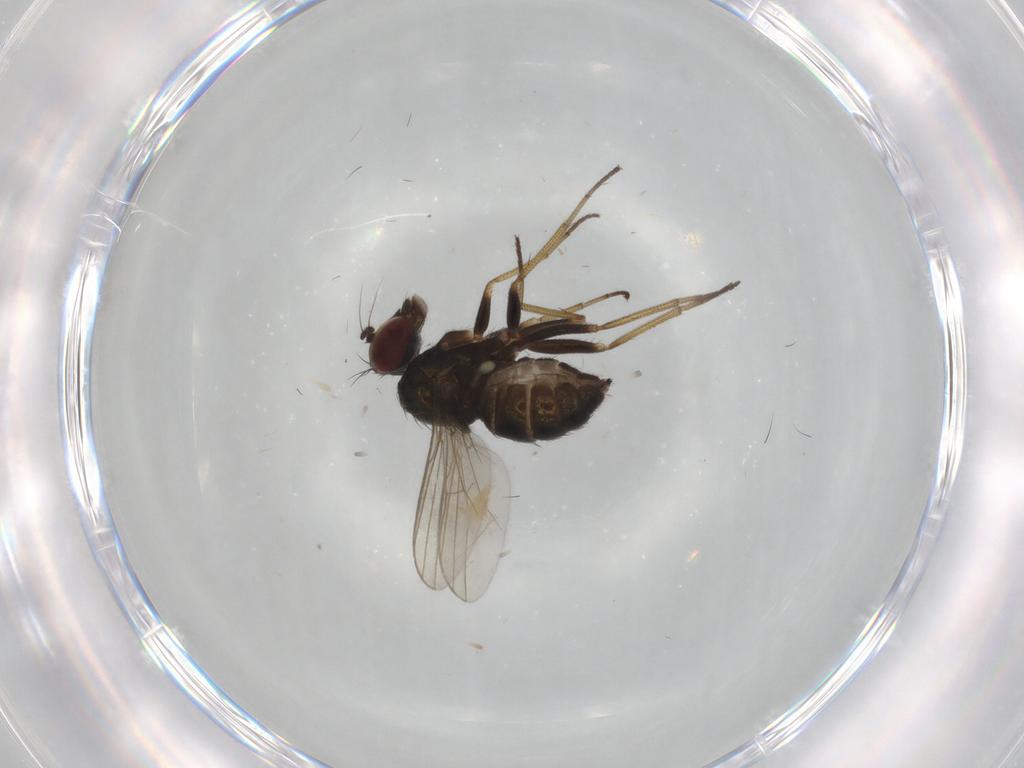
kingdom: Animalia
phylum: Arthropoda
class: Insecta
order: Diptera
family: Dolichopodidae
